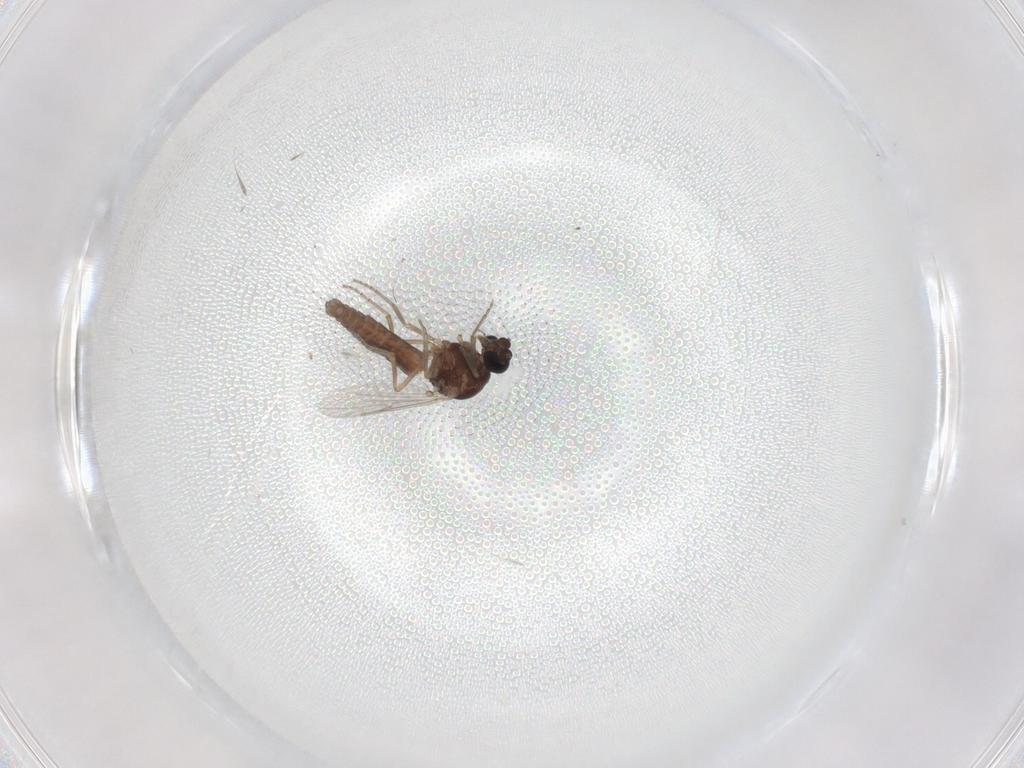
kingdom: Animalia
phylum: Arthropoda
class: Insecta
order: Diptera
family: Ceratopogonidae
